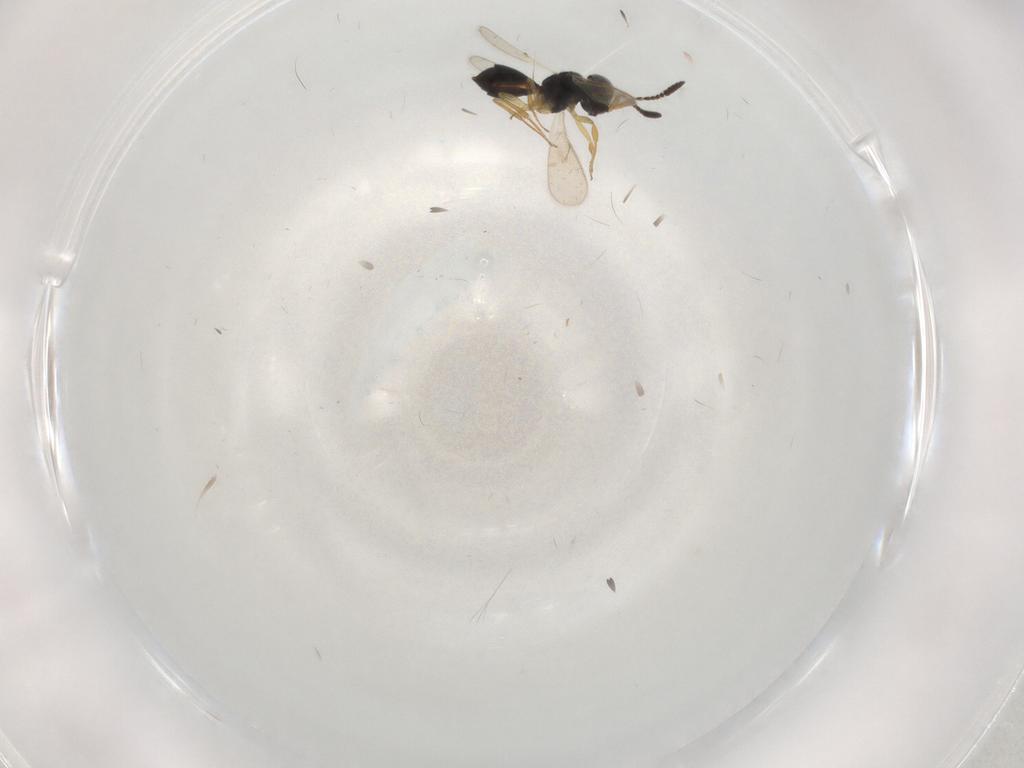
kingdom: Animalia
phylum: Arthropoda
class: Insecta
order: Hymenoptera
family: Scelionidae
